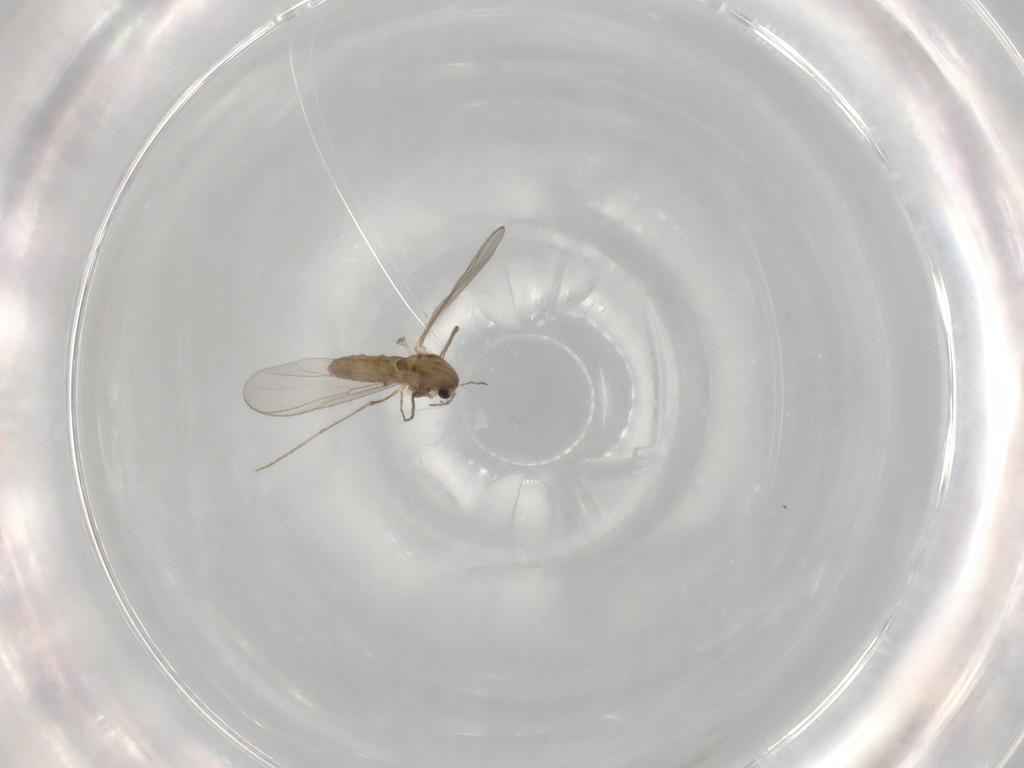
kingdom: Animalia
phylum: Arthropoda
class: Insecta
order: Diptera
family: Chironomidae
